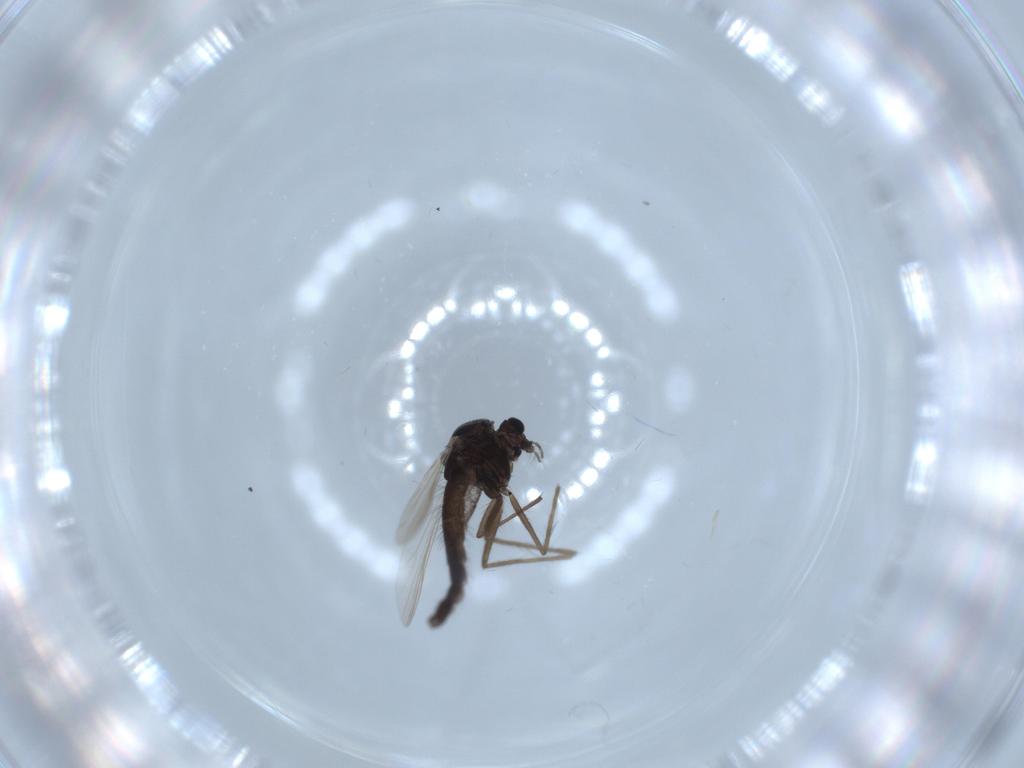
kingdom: Animalia
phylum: Arthropoda
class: Insecta
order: Diptera
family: Chironomidae
